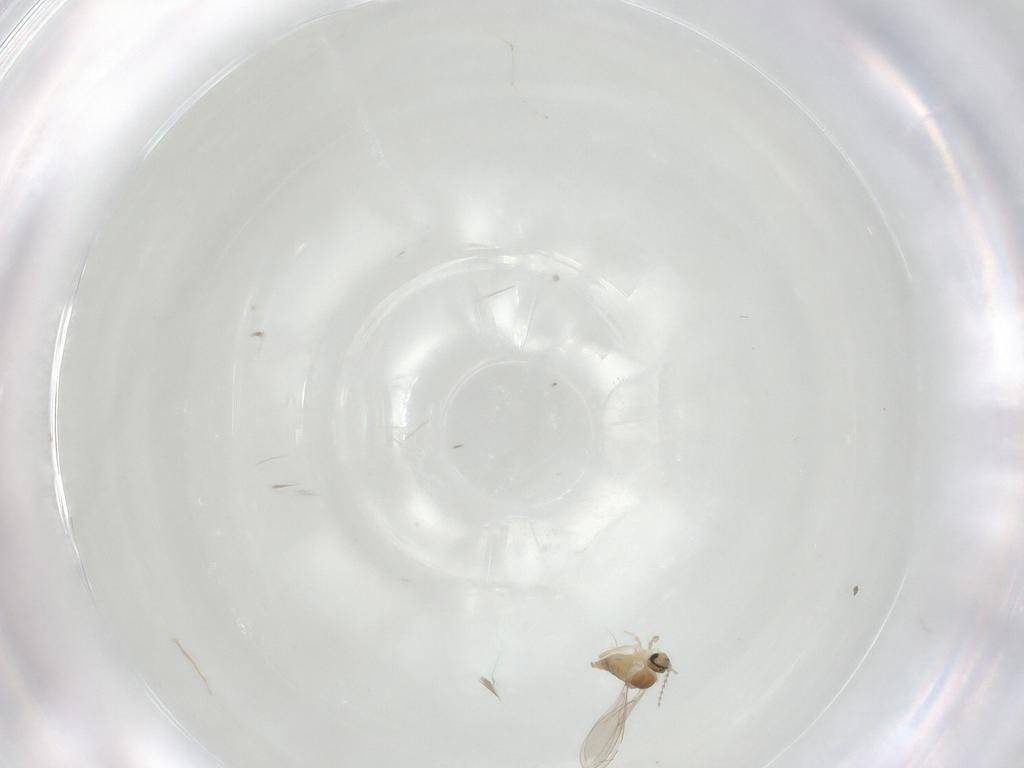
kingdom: Animalia
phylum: Arthropoda
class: Insecta
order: Diptera
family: Cecidomyiidae
